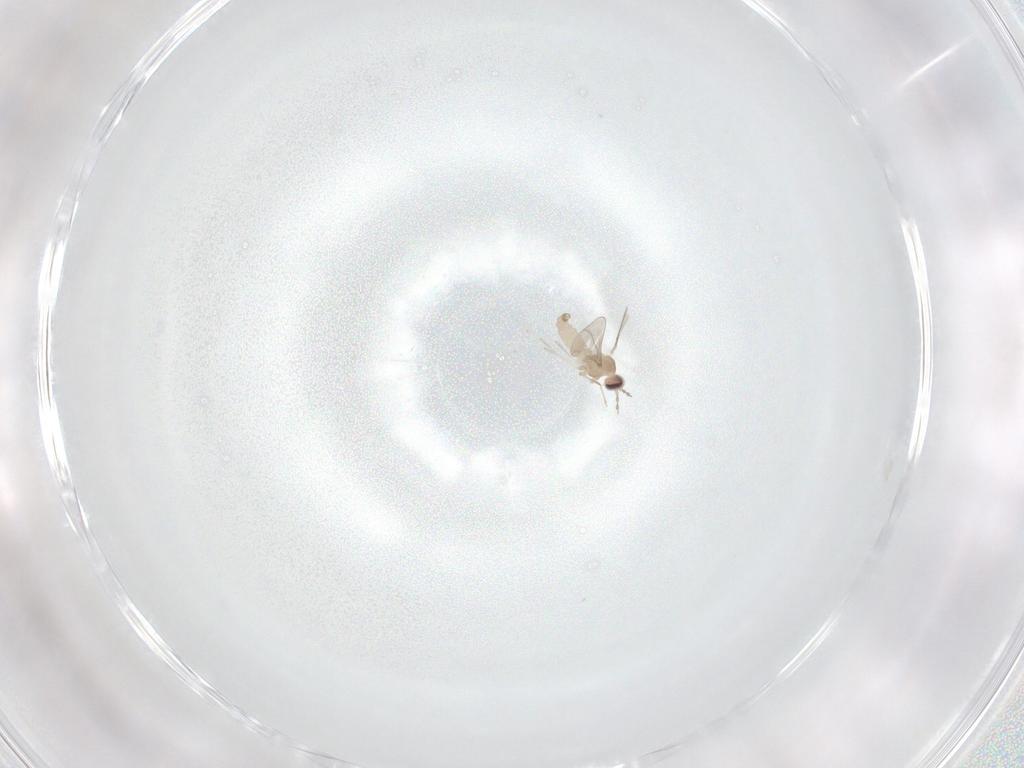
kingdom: Animalia
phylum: Arthropoda
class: Insecta
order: Diptera
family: Cecidomyiidae
